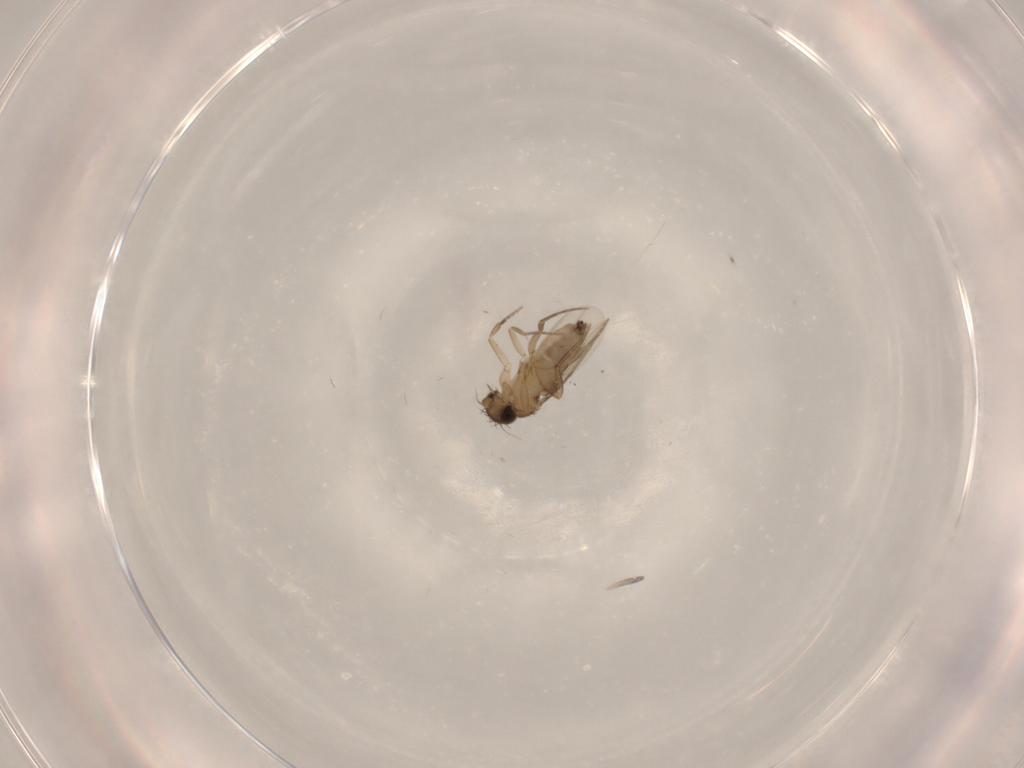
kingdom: Animalia
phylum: Arthropoda
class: Insecta
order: Diptera
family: Phoridae
